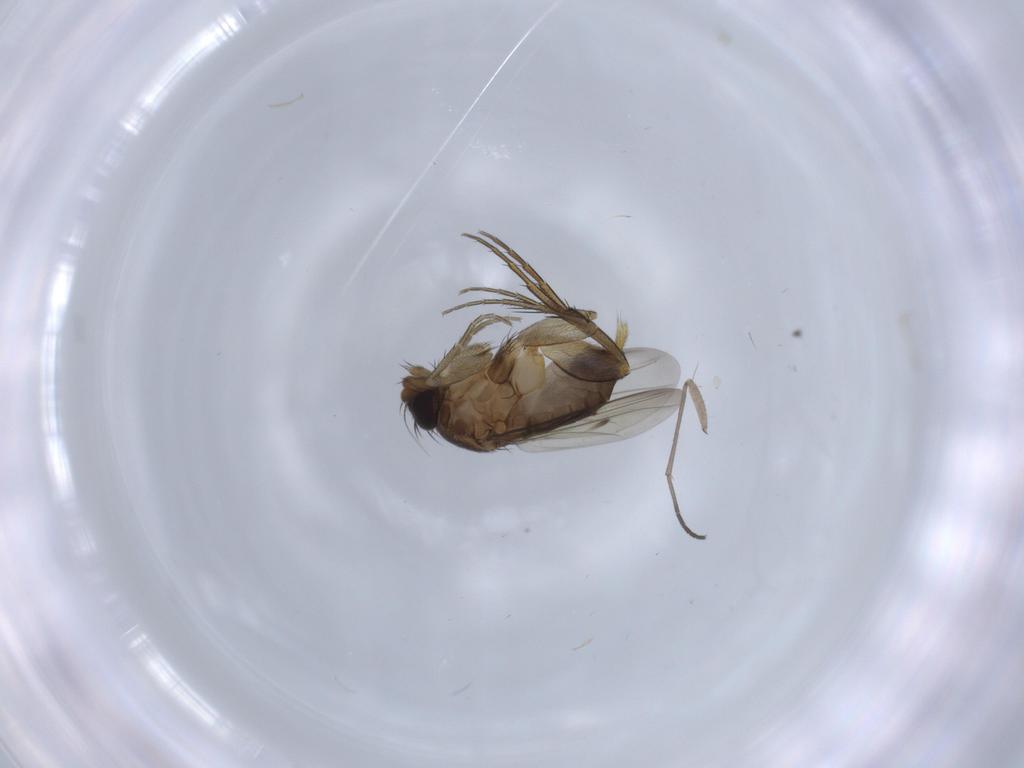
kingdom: Animalia
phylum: Arthropoda
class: Insecta
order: Diptera
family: Phoridae
